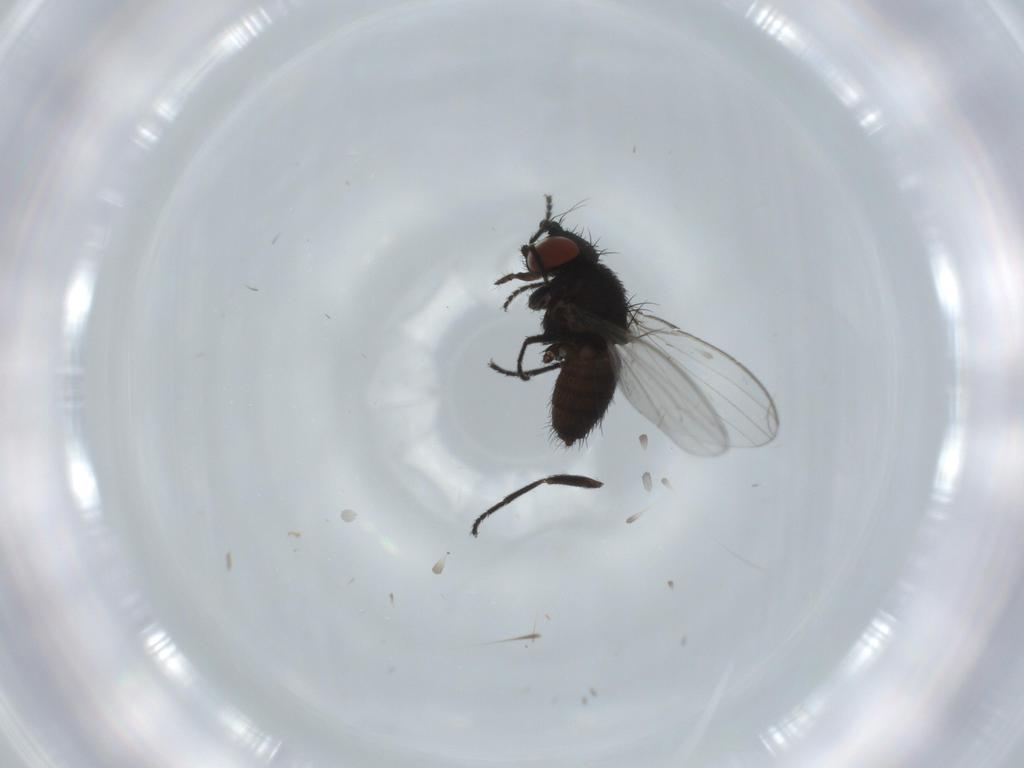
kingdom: Animalia
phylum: Arthropoda
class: Insecta
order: Diptera
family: Milichiidae
